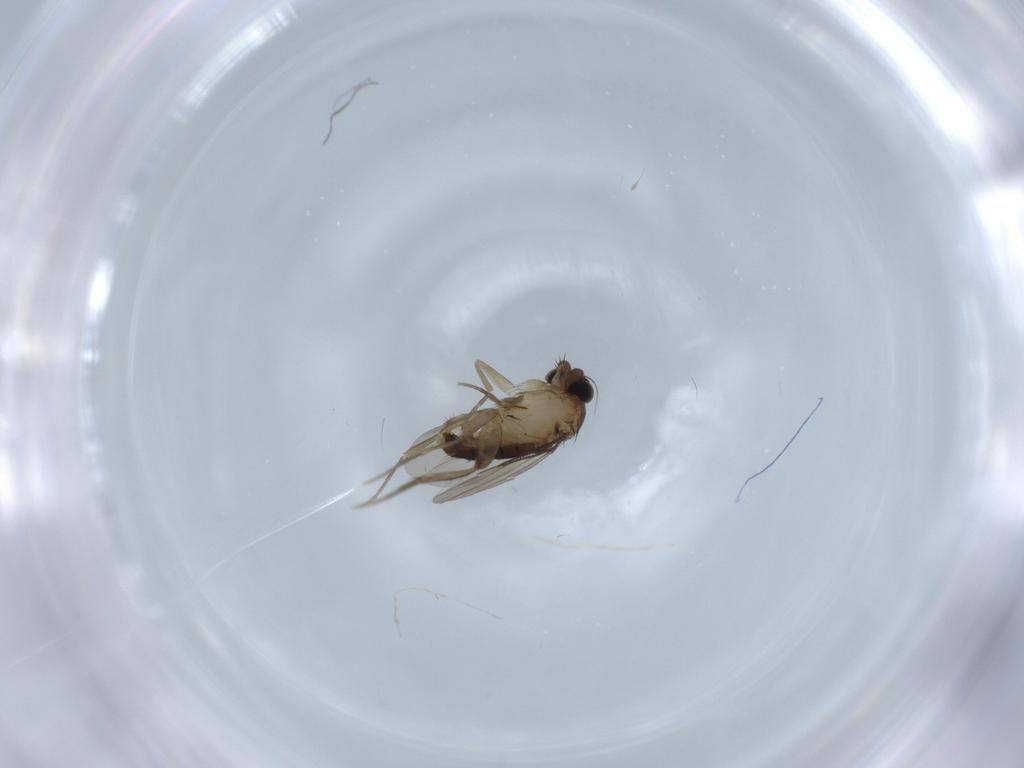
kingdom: Animalia
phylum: Arthropoda
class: Insecta
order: Diptera
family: Phoridae
